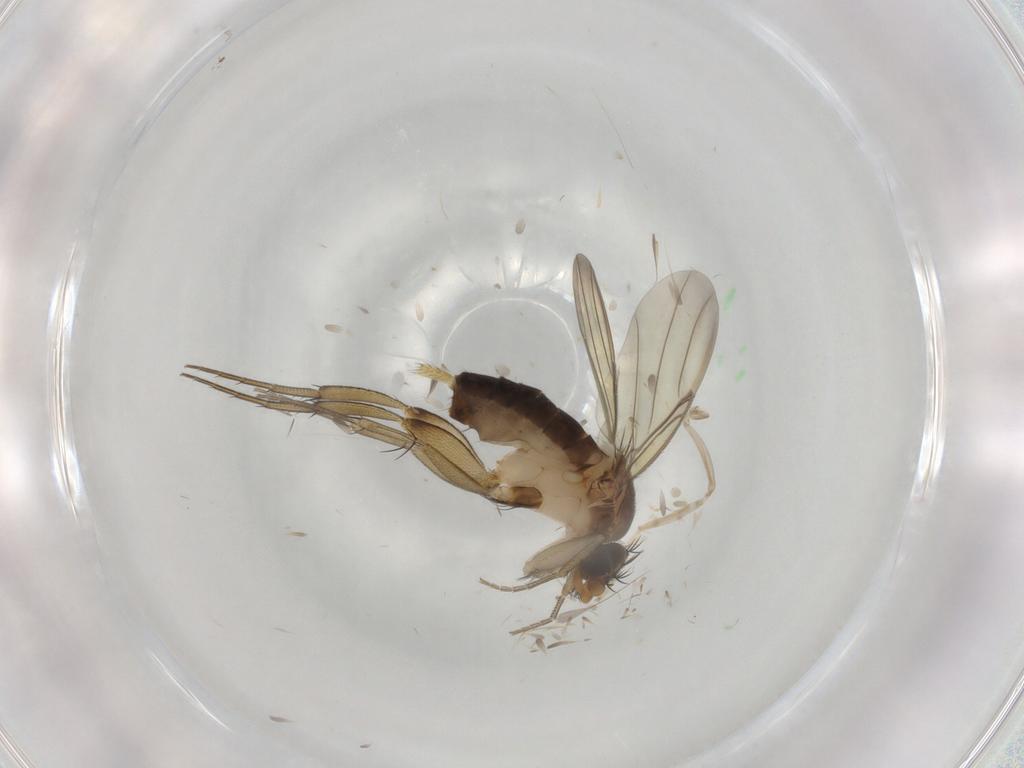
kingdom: Animalia
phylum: Arthropoda
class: Insecta
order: Diptera
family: Phoridae
